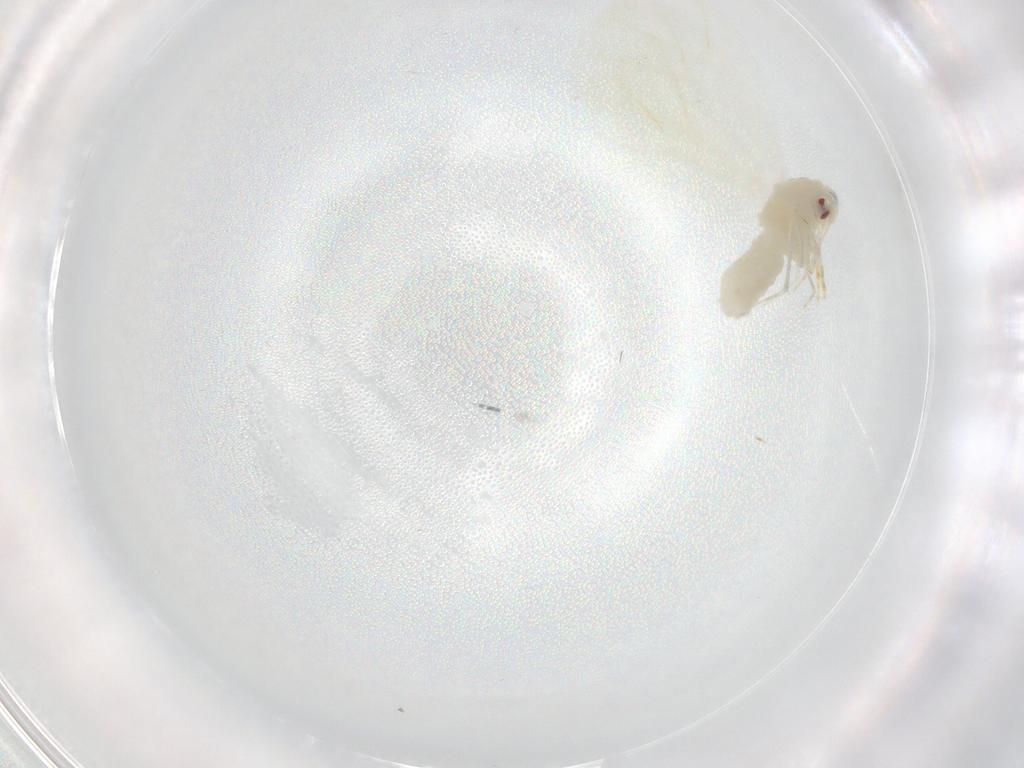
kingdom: Animalia
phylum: Arthropoda
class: Insecta
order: Hemiptera
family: Aleyrodidae
